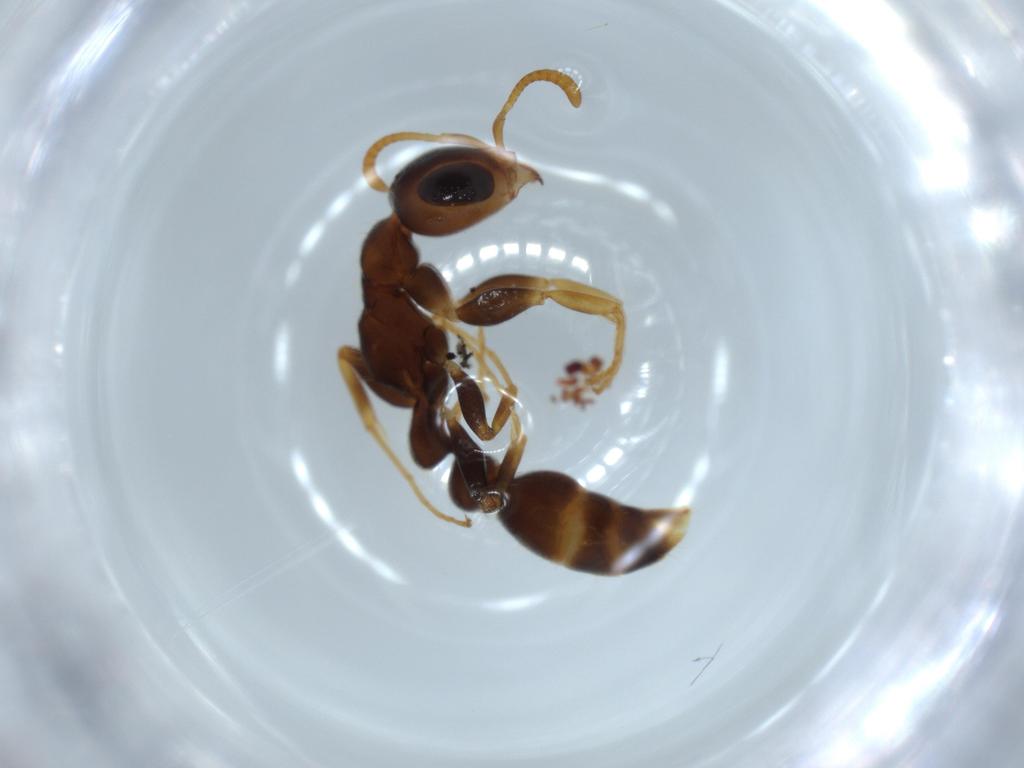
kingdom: Animalia
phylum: Arthropoda
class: Insecta
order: Hymenoptera
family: Formicidae
